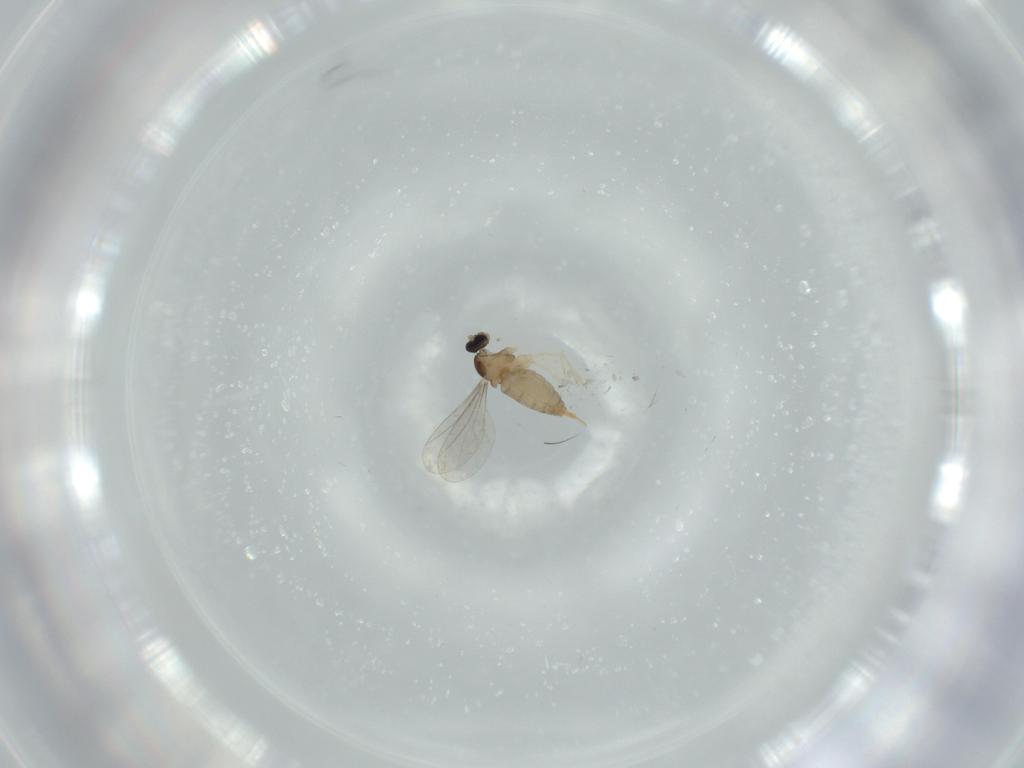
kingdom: Animalia
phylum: Arthropoda
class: Insecta
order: Diptera
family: Cecidomyiidae
